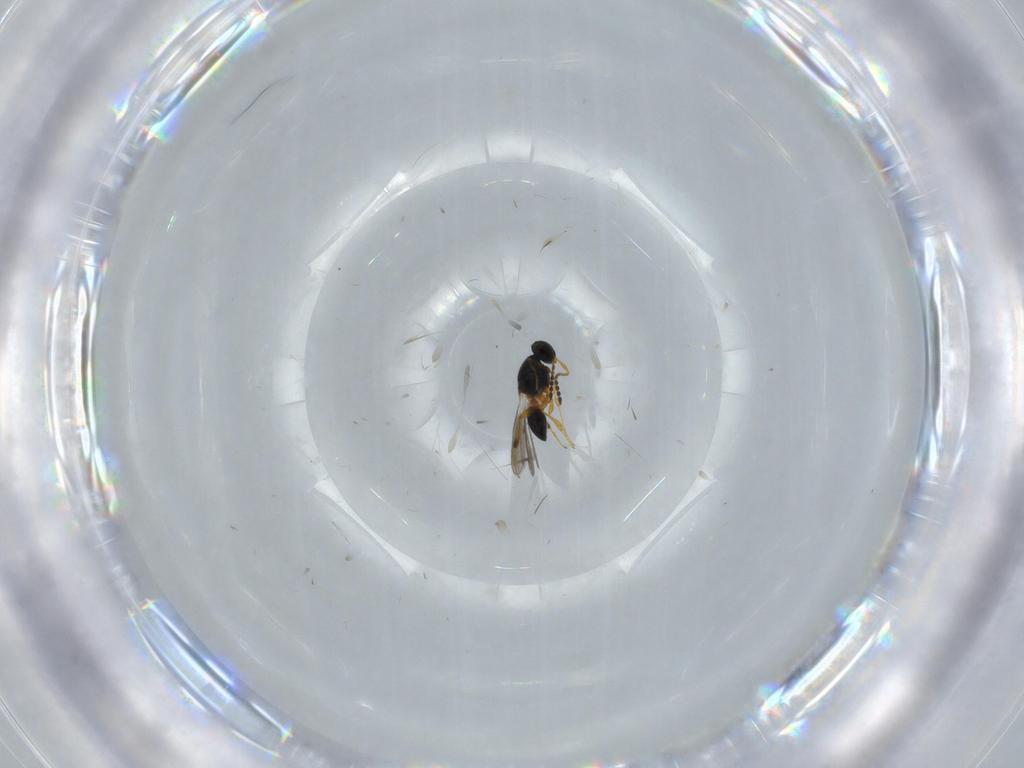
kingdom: Animalia
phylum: Arthropoda
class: Insecta
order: Hymenoptera
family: Platygastridae
